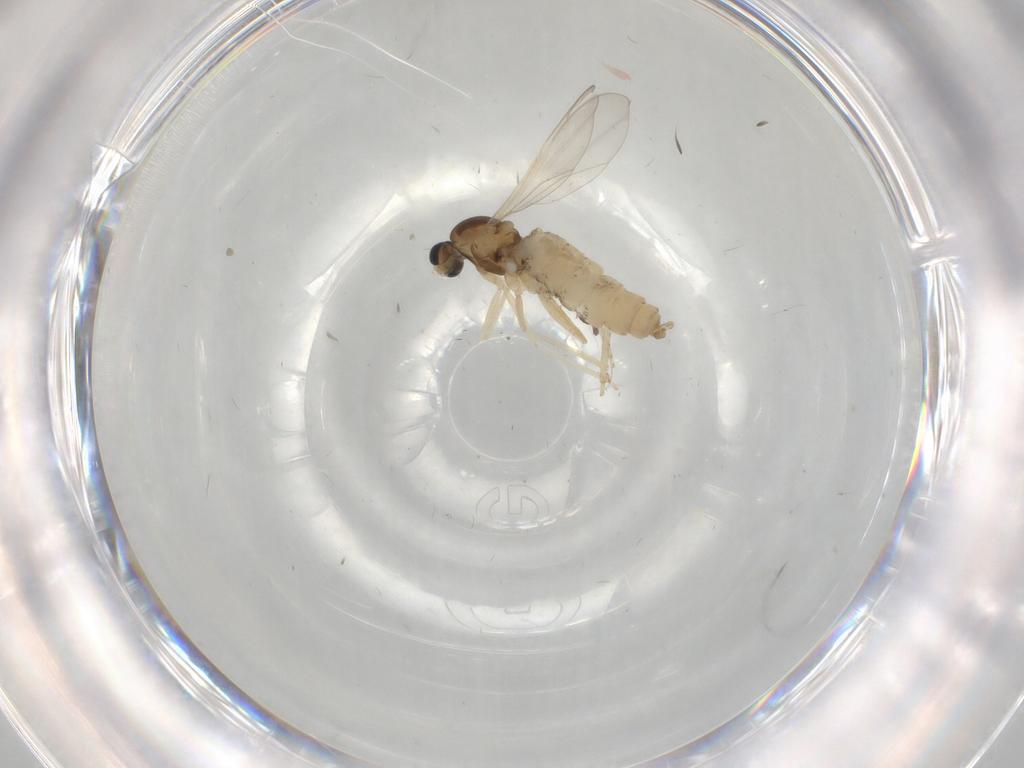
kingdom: Animalia
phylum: Arthropoda
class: Insecta
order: Diptera
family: Cecidomyiidae
